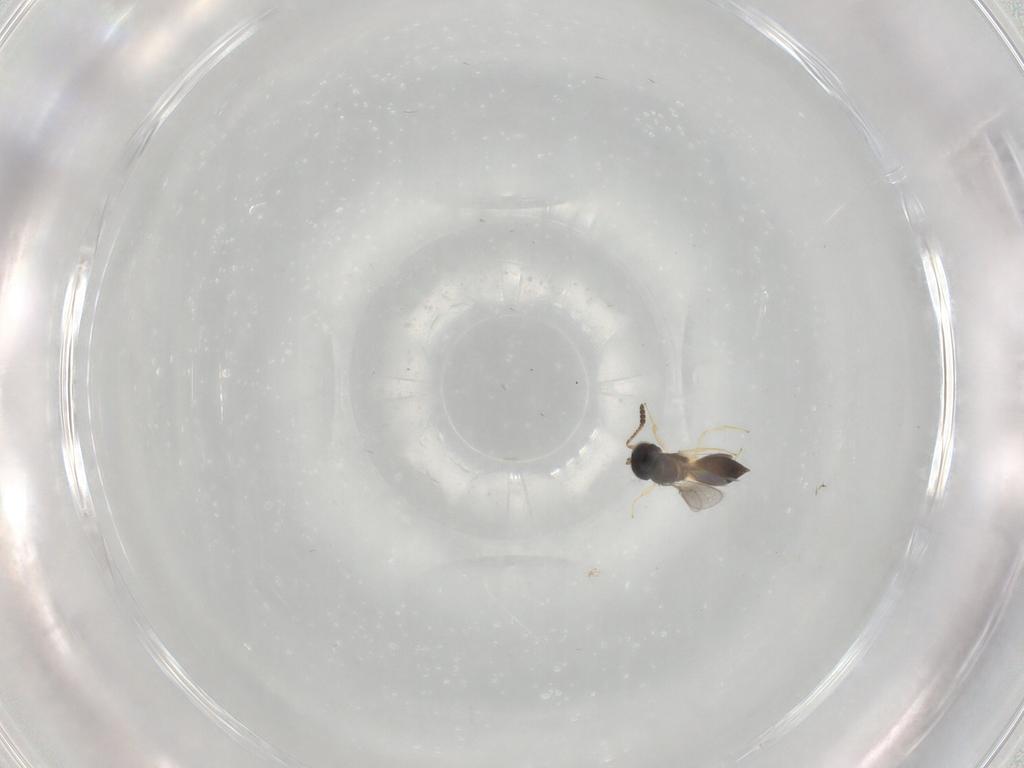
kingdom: Animalia
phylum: Arthropoda
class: Insecta
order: Hymenoptera
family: Scelionidae
